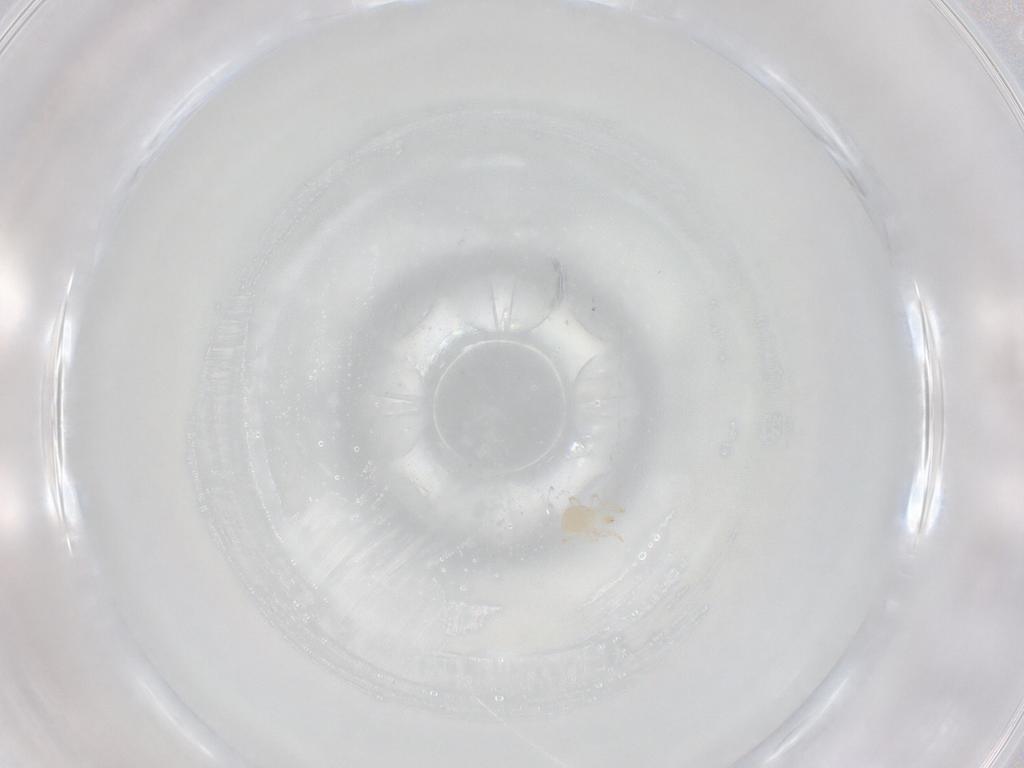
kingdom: Animalia
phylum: Arthropoda
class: Arachnida
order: Mesostigmata
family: Phytoseiidae
